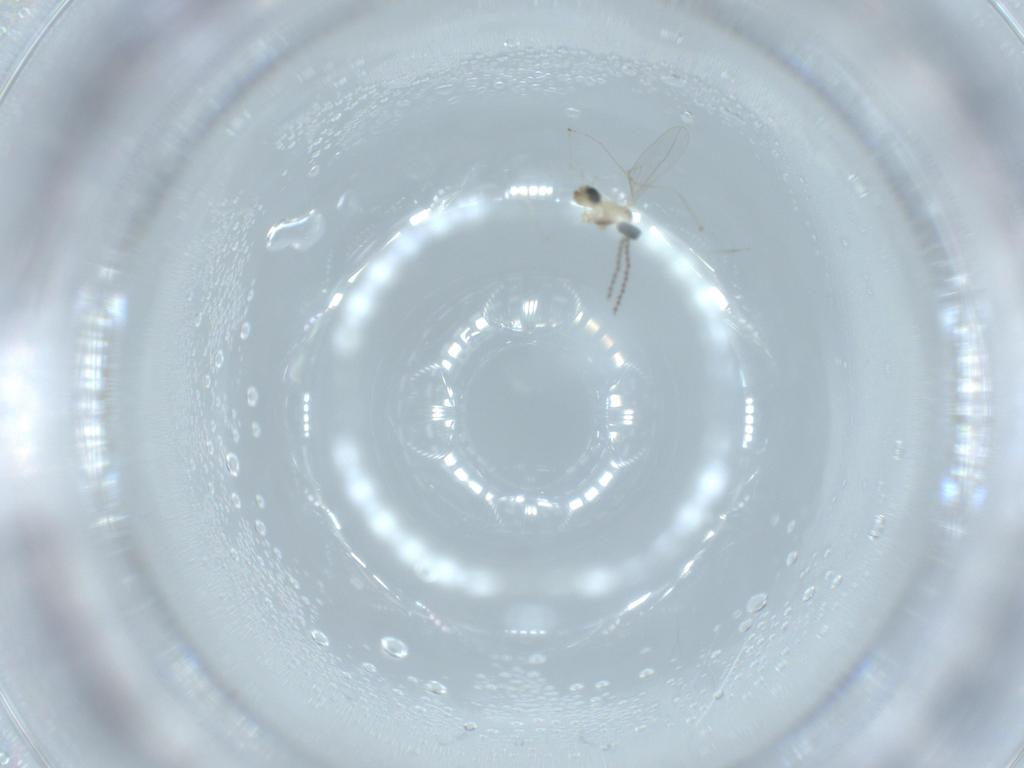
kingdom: Animalia
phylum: Arthropoda
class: Insecta
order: Diptera
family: Cecidomyiidae
